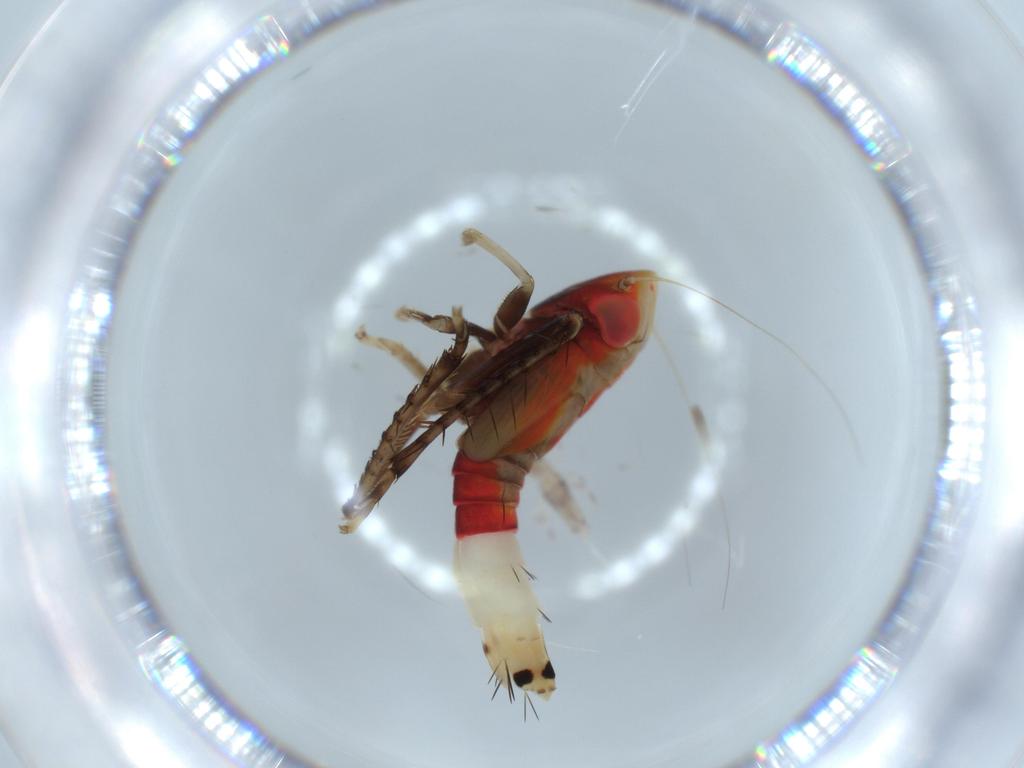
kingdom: Animalia
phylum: Arthropoda
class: Insecta
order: Hemiptera
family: Cicadellidae
